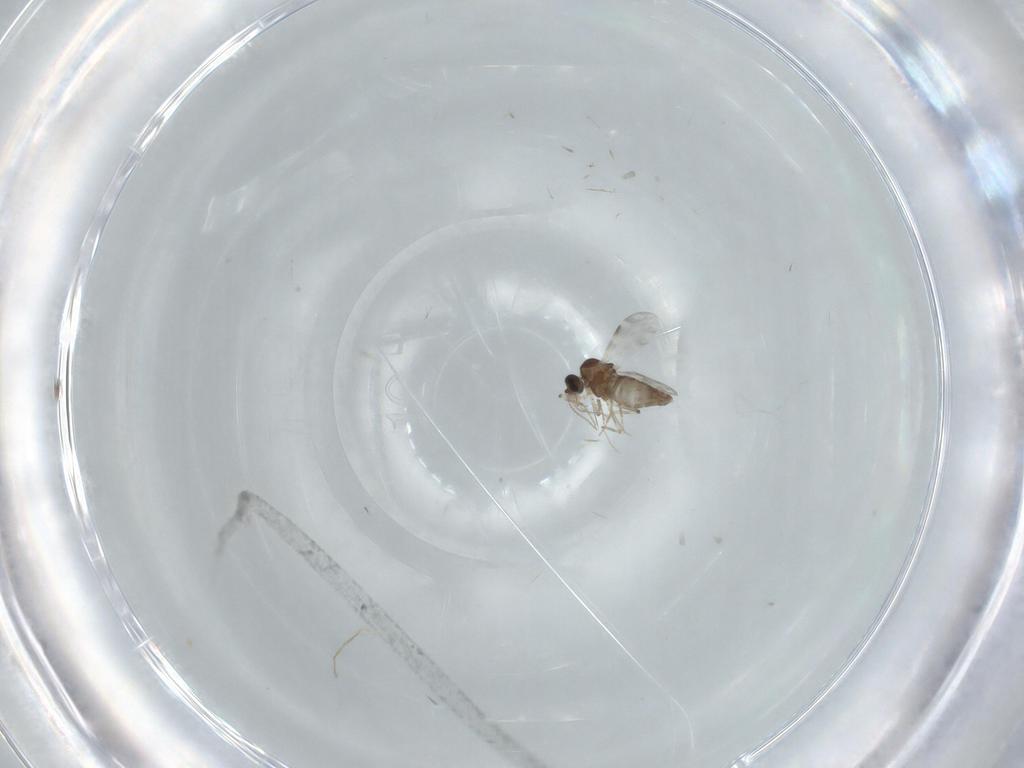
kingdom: Animalia
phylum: Arthropoda
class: Insecta
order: Diptera
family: Ceratopogonidae
